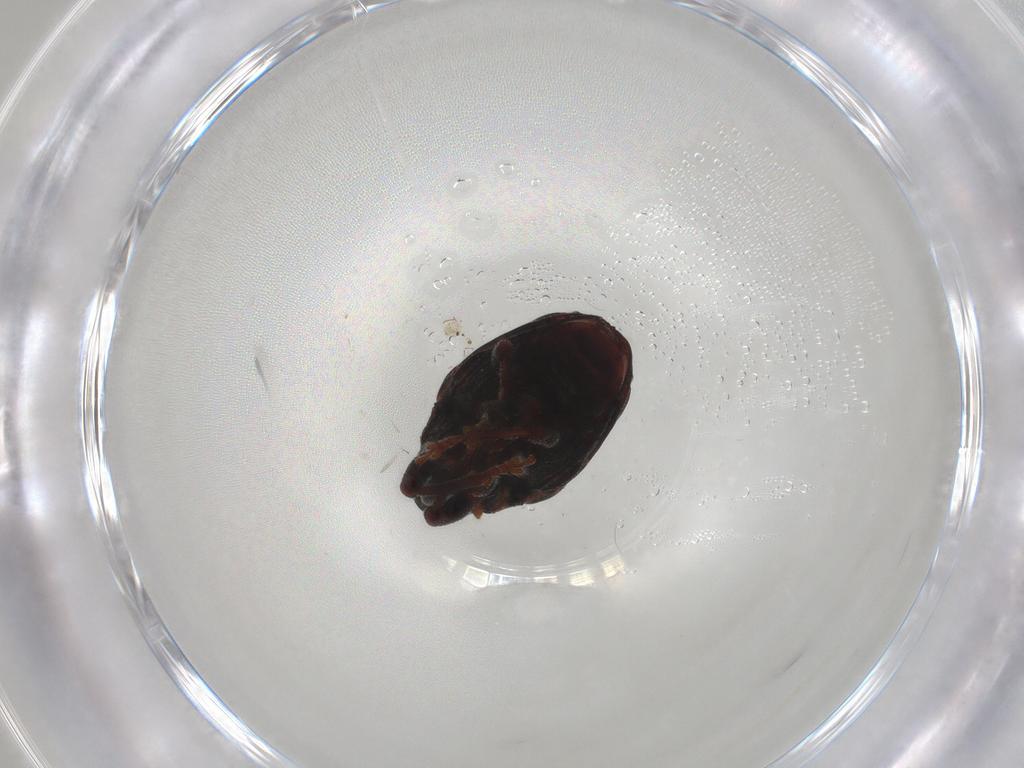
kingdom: Animalia
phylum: Arthropoda
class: Insecta
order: Coleoptera
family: Curculionidae
